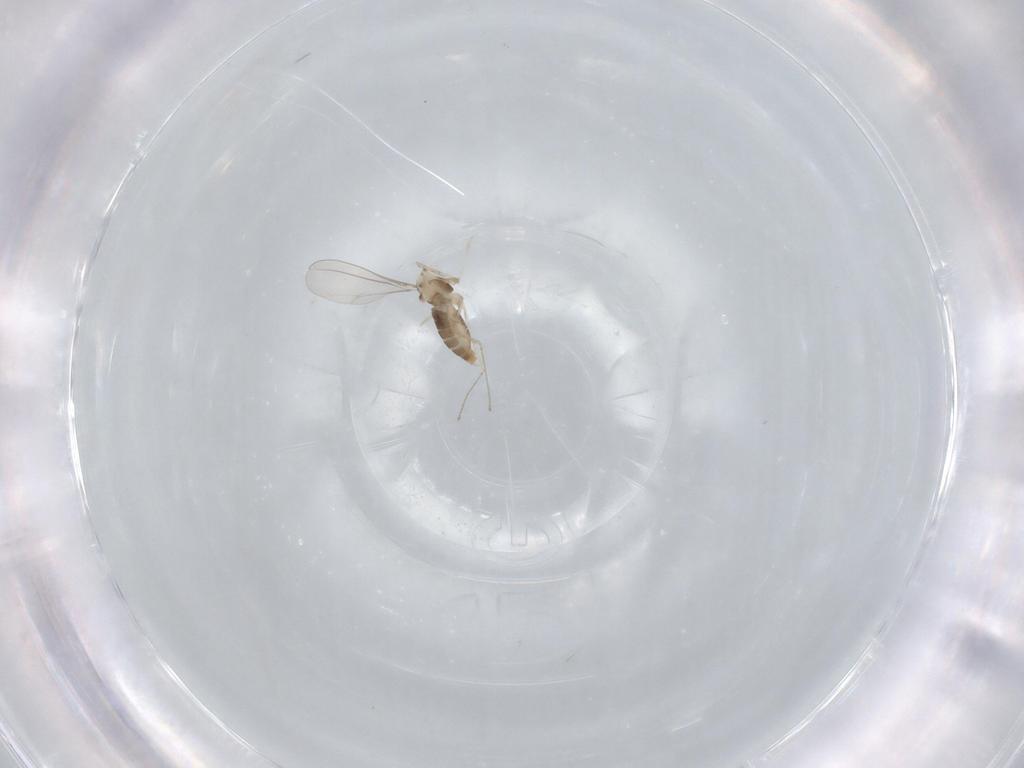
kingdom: Animalia
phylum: Arthropoda
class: Insecta
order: Diptera
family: Cecidomyiidae
